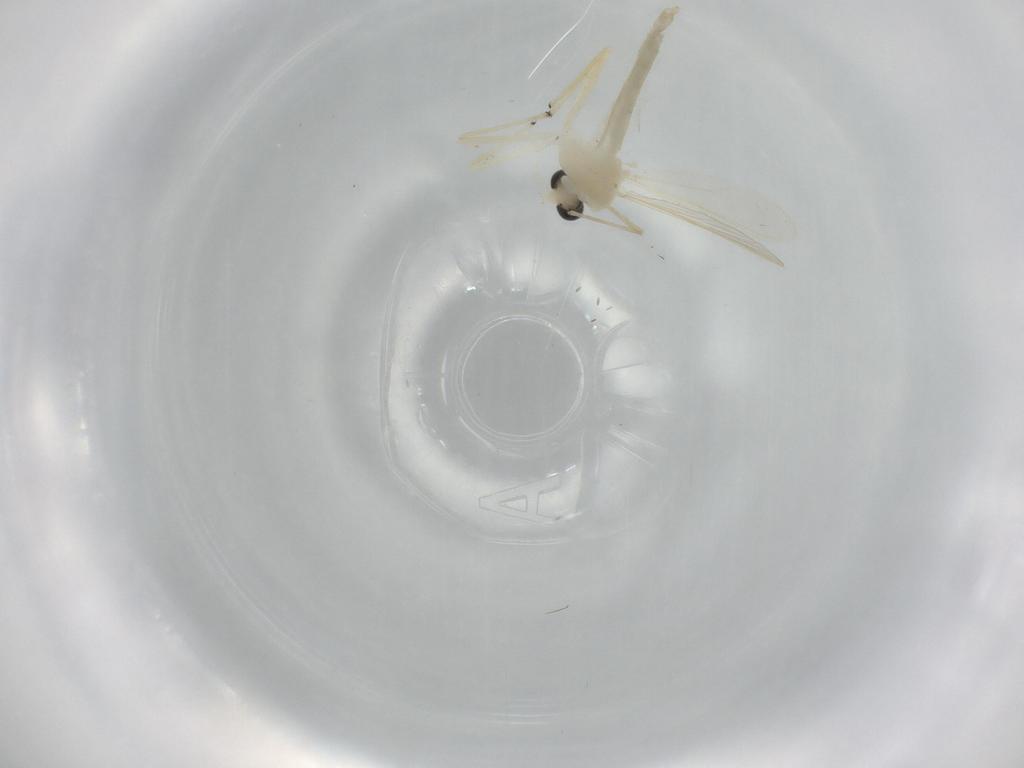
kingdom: Animalia
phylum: Arthropoda
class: Insecta
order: Diptera
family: Chironomidae
